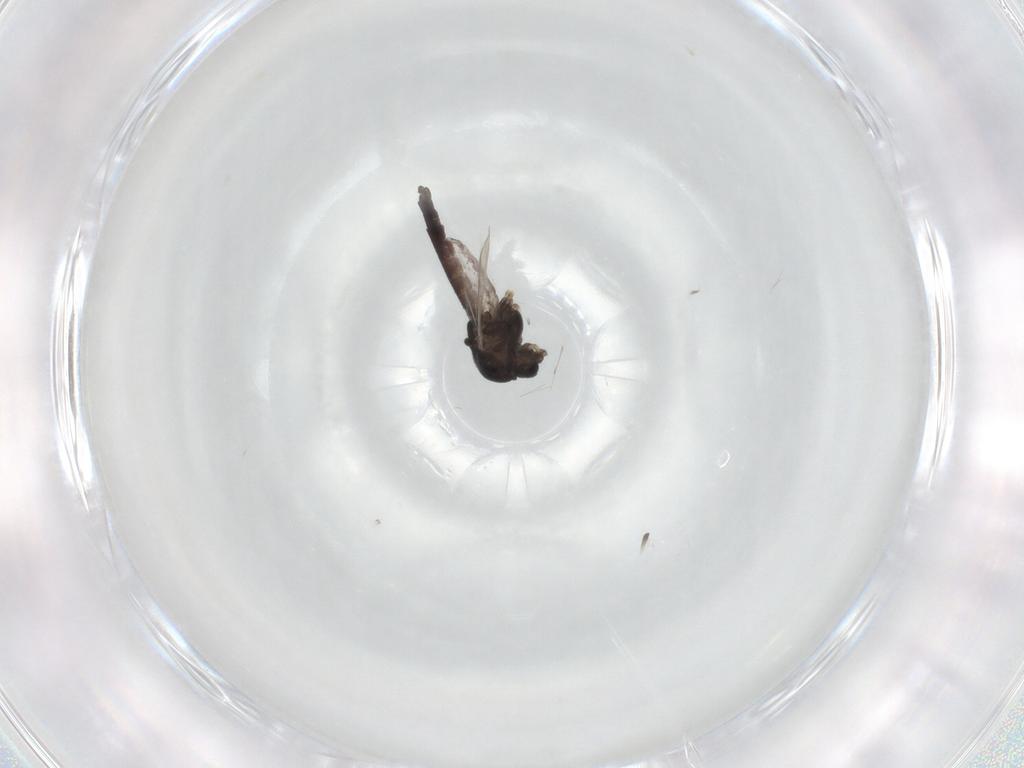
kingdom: Animalia
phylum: Arthropoda
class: Insecta
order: Diptera
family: Chironomidae
